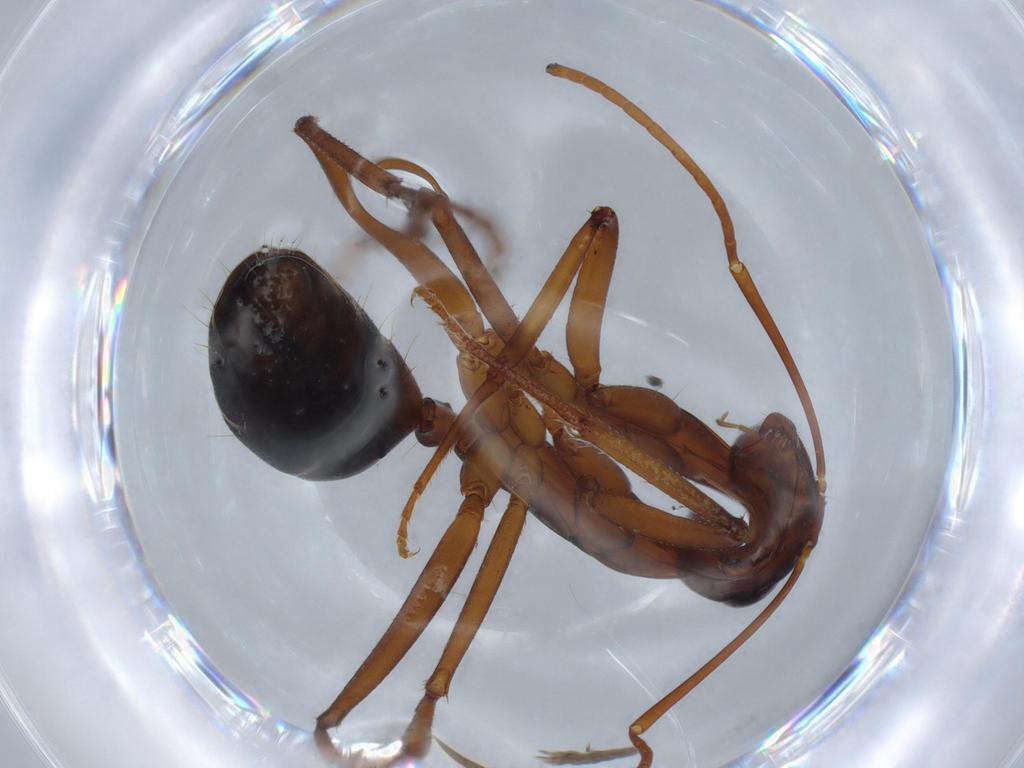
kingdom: Animalia
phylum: Arthropoda
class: Insecta
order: Hymenoptera
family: Formicidae
